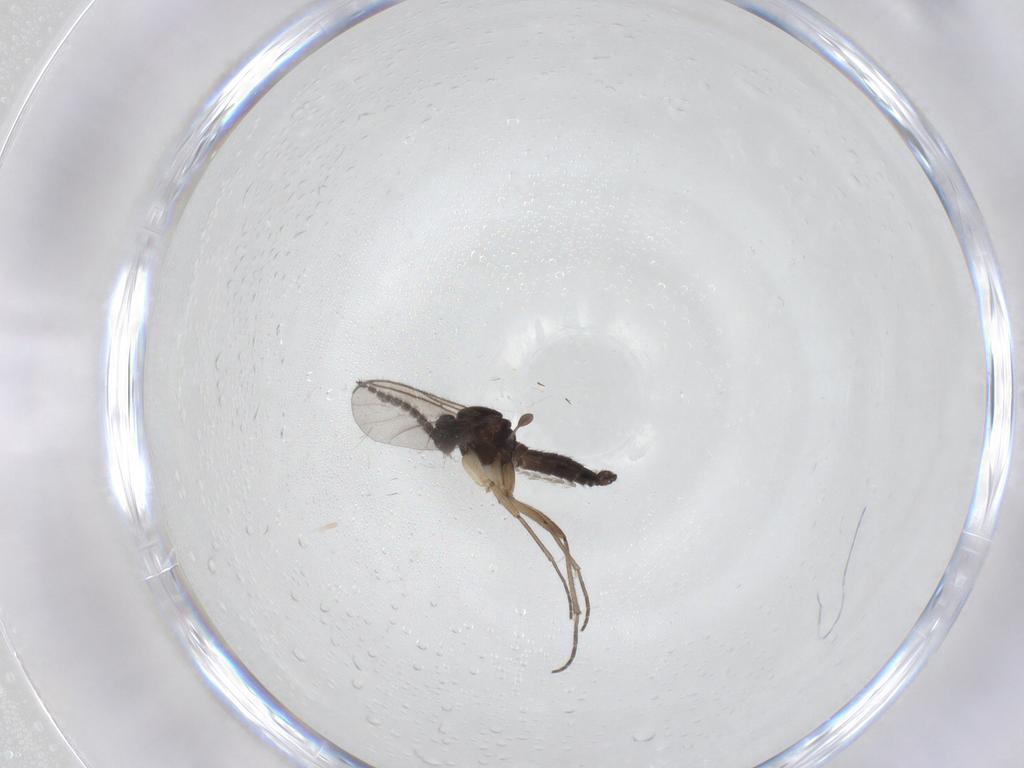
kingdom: Animalia
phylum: Arthropoda
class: Insecta
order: Diptera
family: Sciaridae
